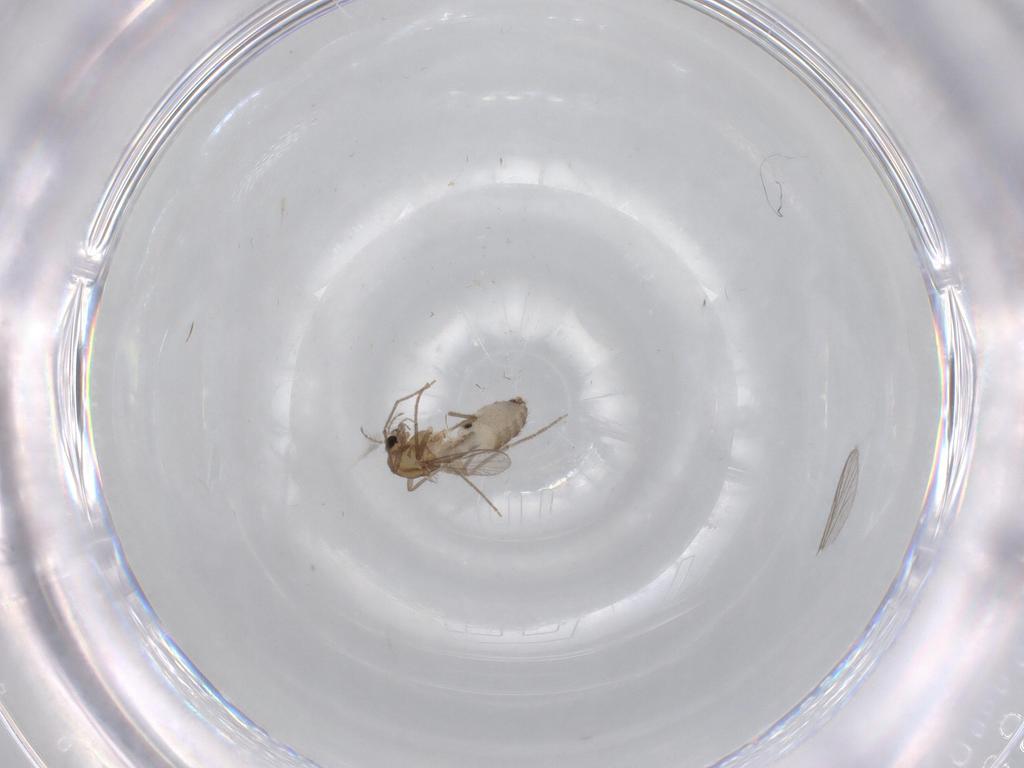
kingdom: Animalia
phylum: Arthropoda
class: Insecta
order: Diptera
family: Chironomidae
